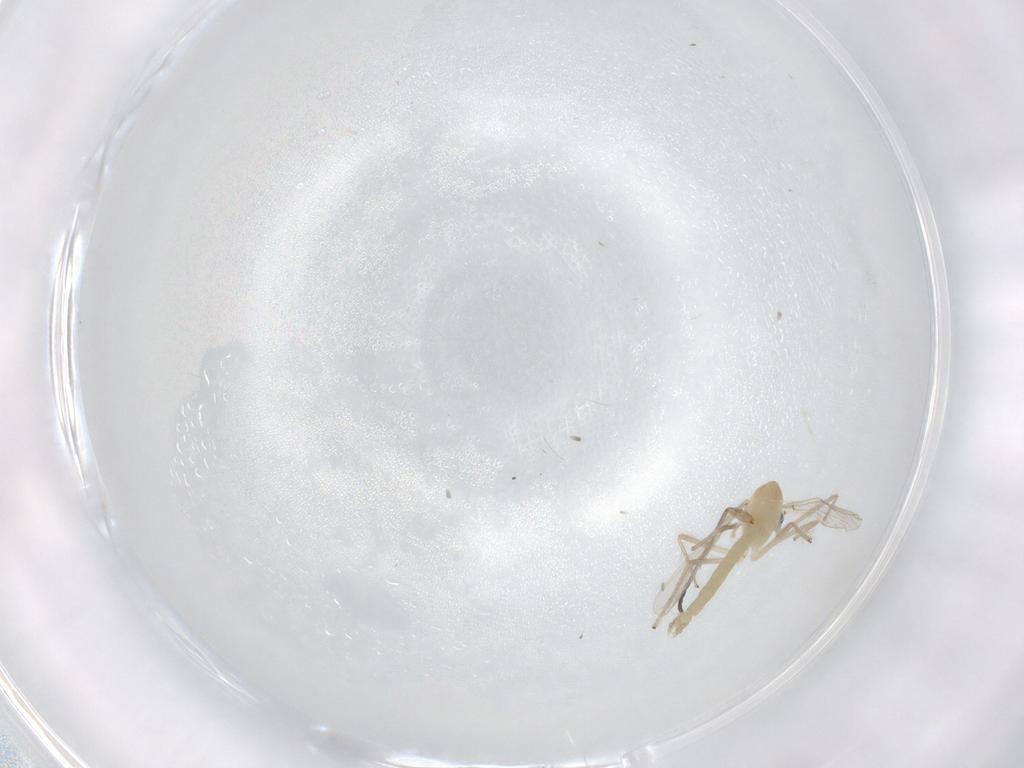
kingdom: Animalia
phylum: Arthropoda
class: Insecta
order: Diptera
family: Chironomidae
